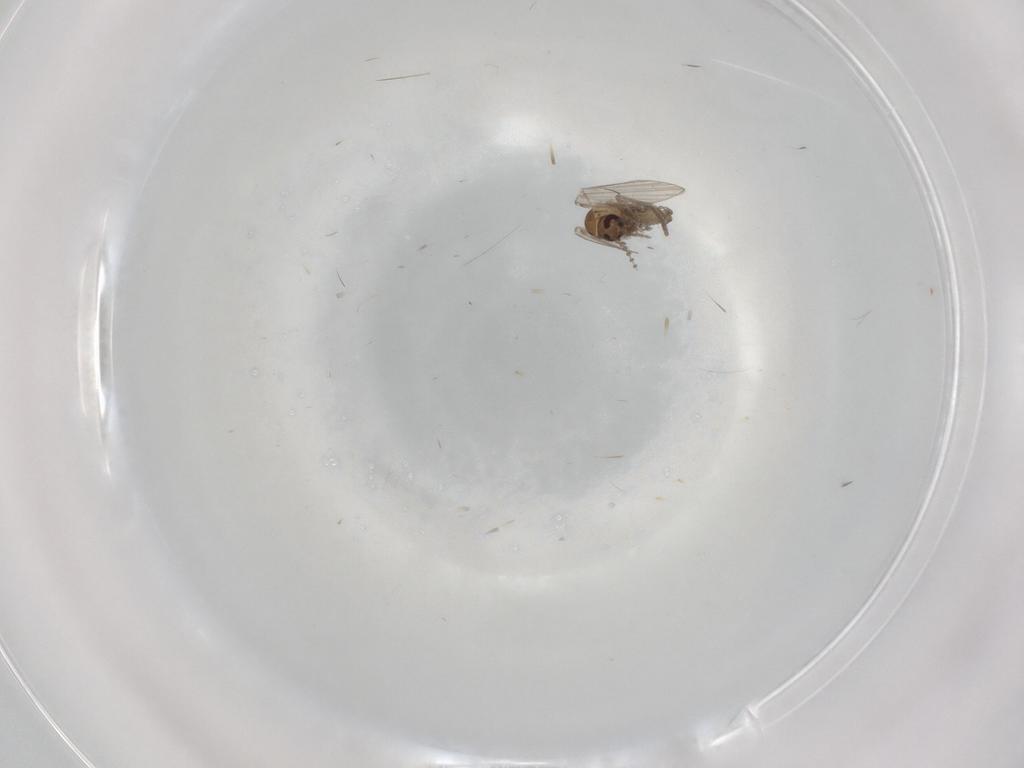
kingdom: Animalia
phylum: Arthropoda
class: Insecta
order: Diptera
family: Psychodidae
